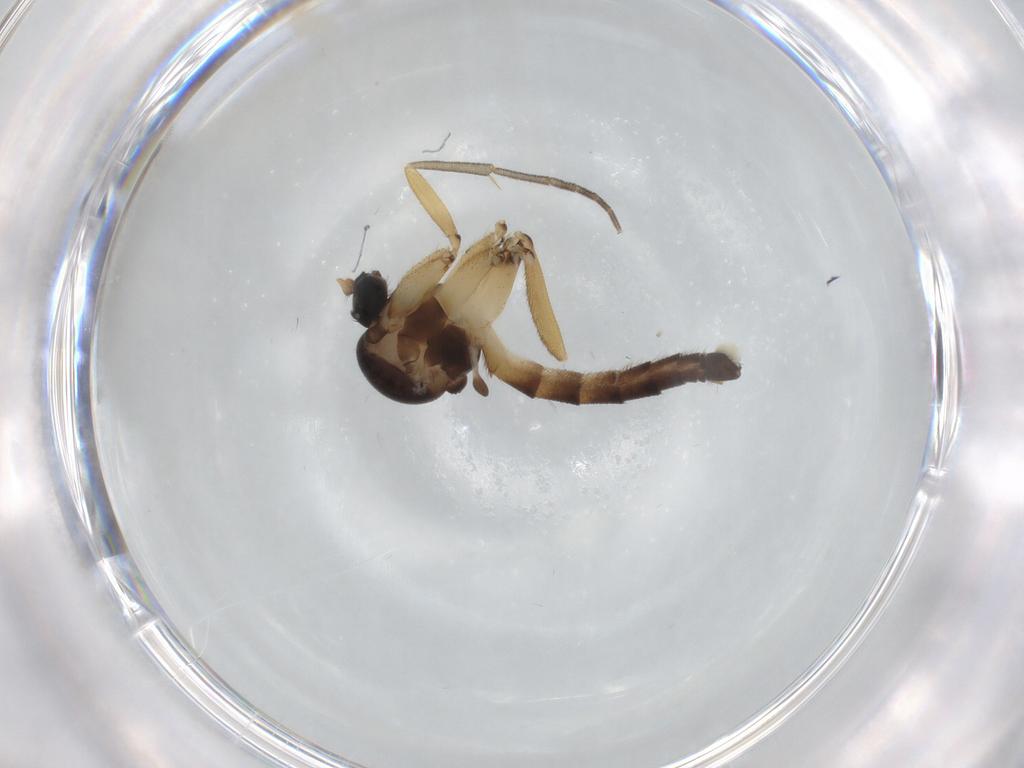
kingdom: Animalia
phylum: Arthropoda
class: Insecta
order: Diptera
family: Mycetophilidae
